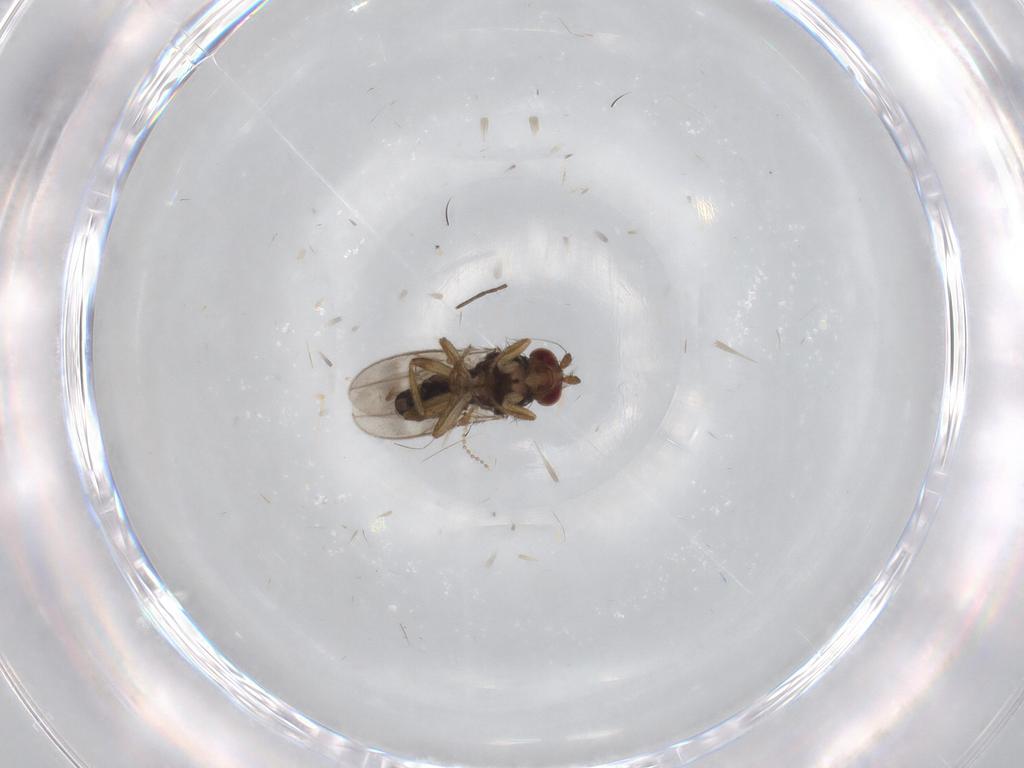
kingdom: Animalia
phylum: Arthropoda
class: Insecta
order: Diptera
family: Sphaeroceridae
